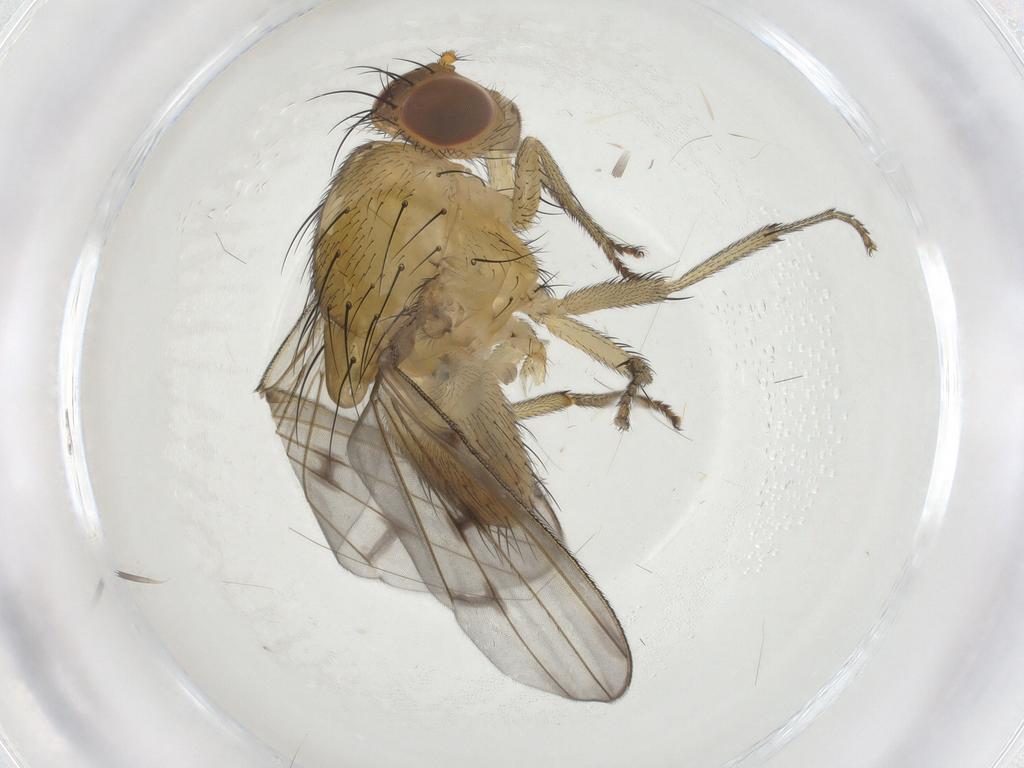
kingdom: Animalia
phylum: Arthropoda
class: Insecta
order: Diptera
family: Cecidomyiidae
